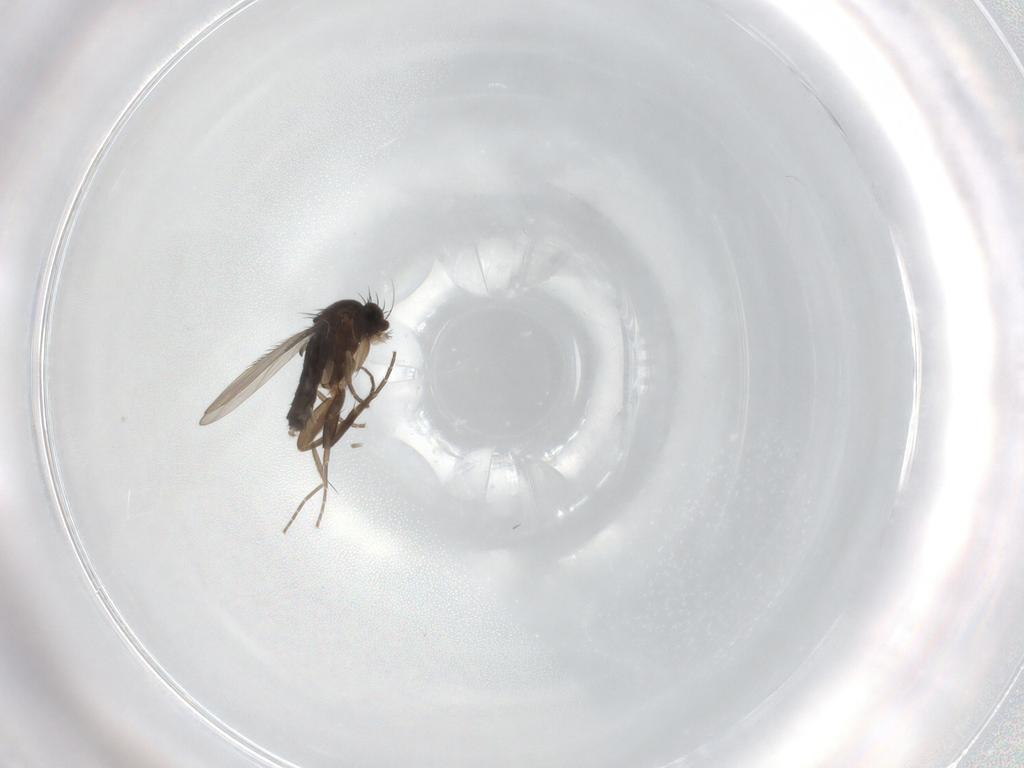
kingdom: Animalia
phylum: Arthropoda
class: Insecta
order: Diptera
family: Phoridae
